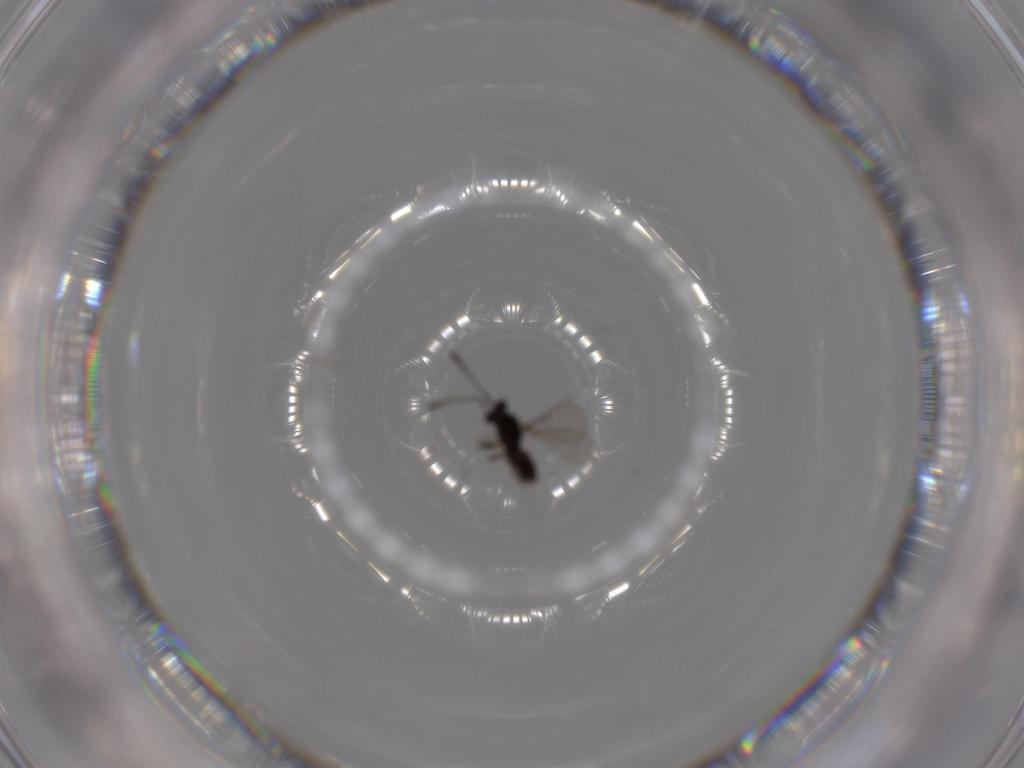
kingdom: Animalia
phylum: Arthropoda
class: Insecta
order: Hymenoptera
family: Mymaridae
